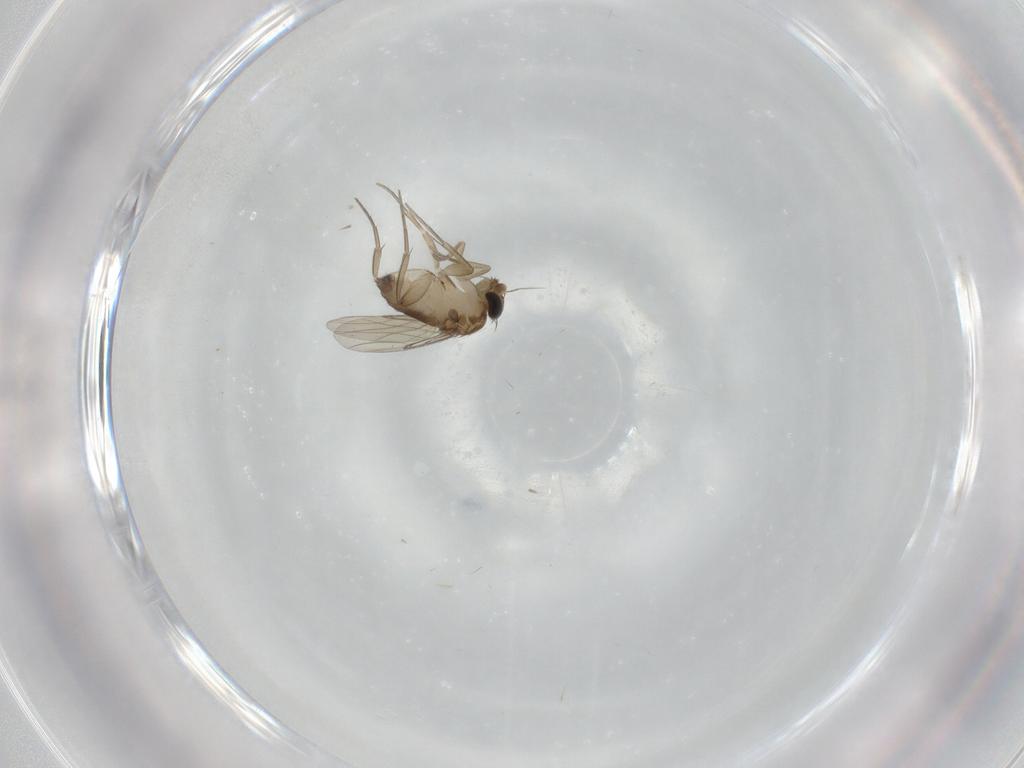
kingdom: Animalia
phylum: Arthropoda
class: Insecta
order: Diptera
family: Phoridae
